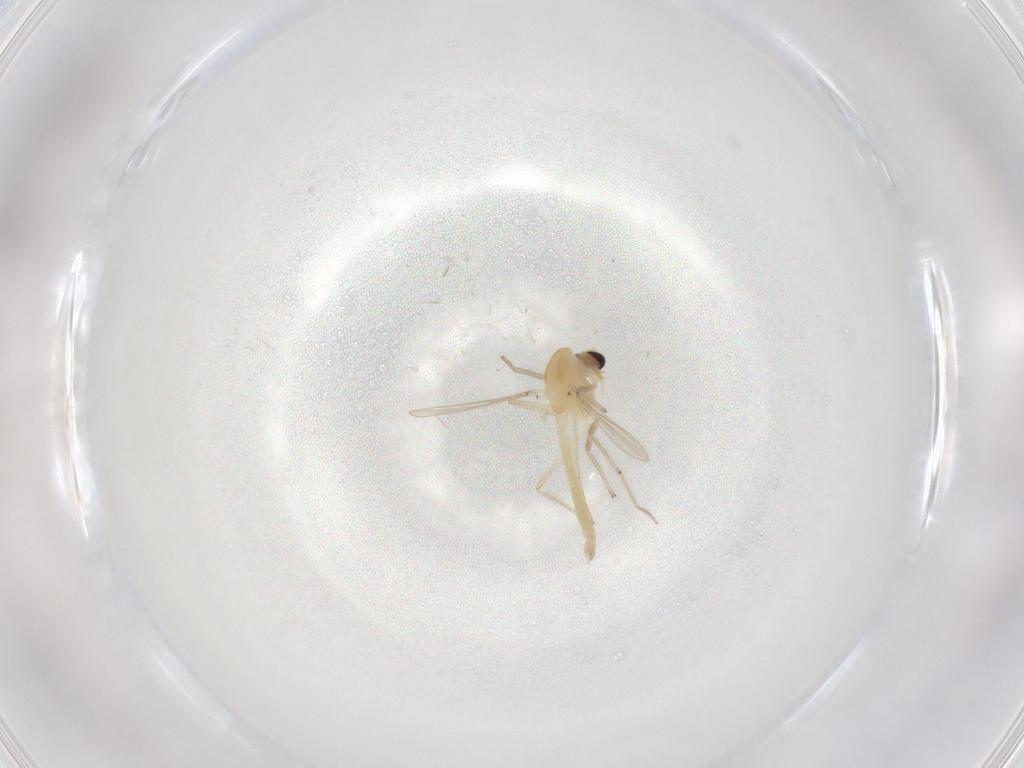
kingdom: Animalia
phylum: Arthropoda
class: Insecta
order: Diptera
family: Chironomidae
